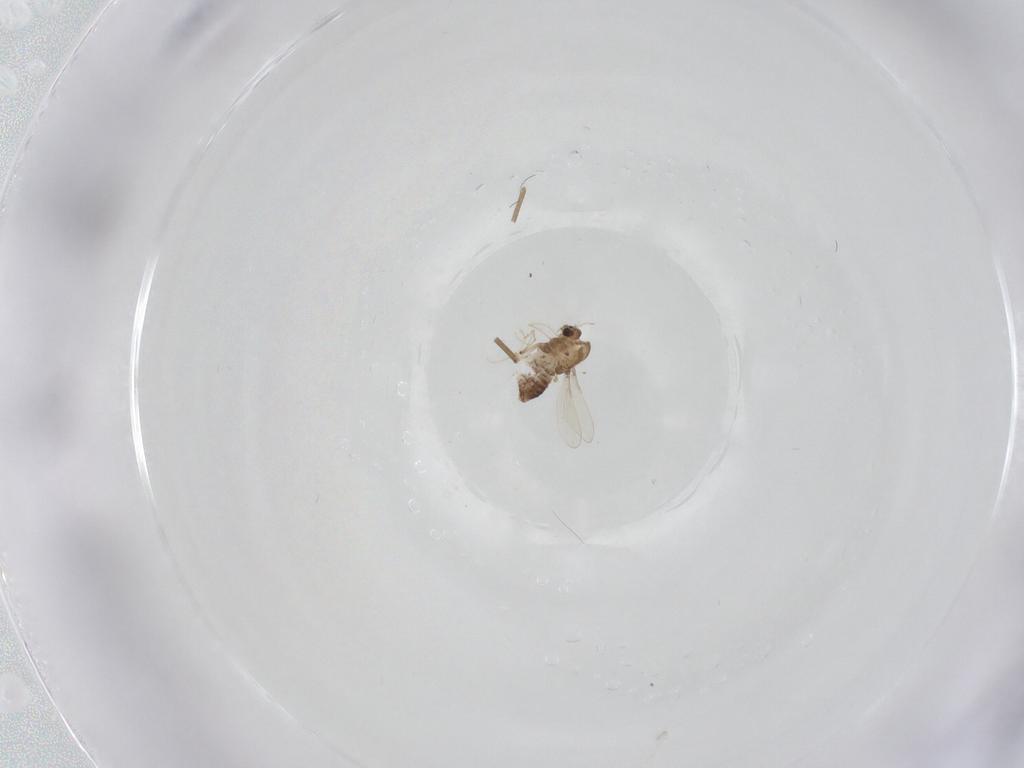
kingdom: Animalia
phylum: Arthropoda
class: Insecta
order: Diptera
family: Chironomidae
